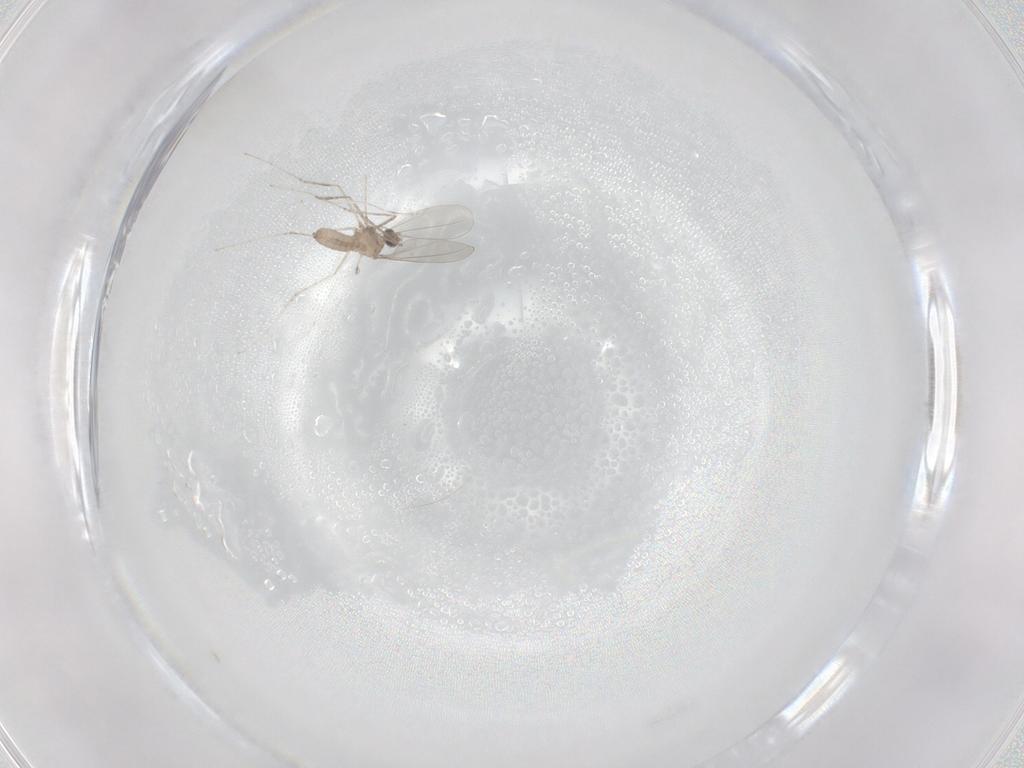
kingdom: Animalia
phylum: Arthropoda
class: Insecta
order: Diptera
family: Cecidomyiidae
